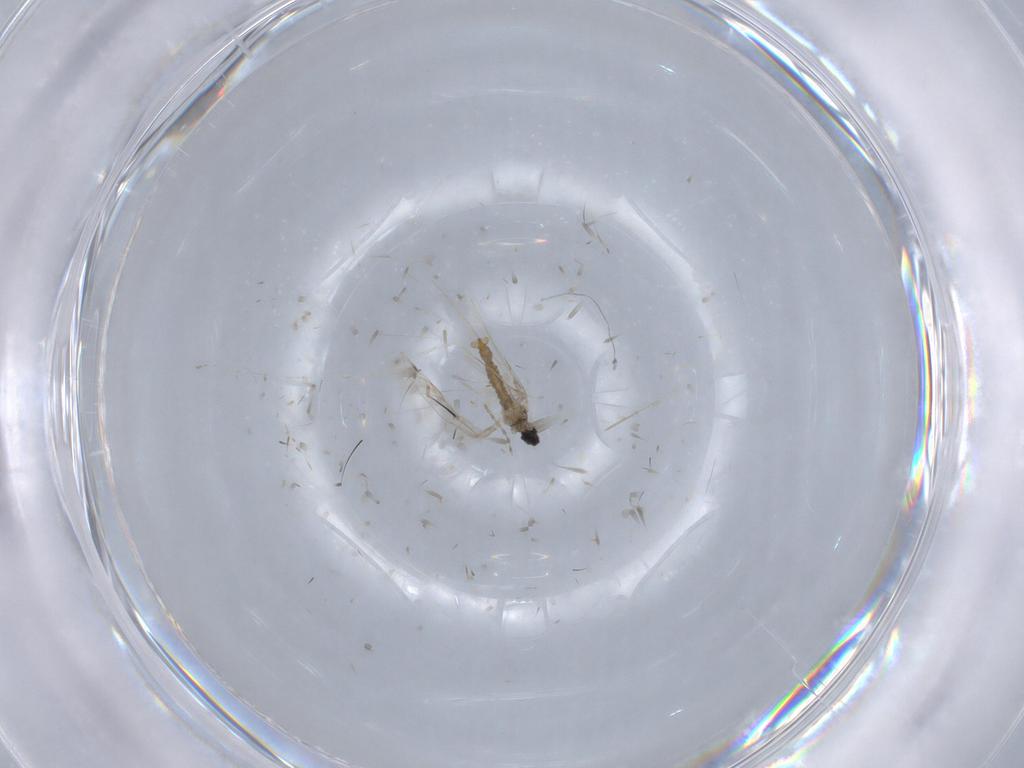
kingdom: Animalia
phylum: Arthropoda
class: Insecta
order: Diptera
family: Cecidomyiidae
